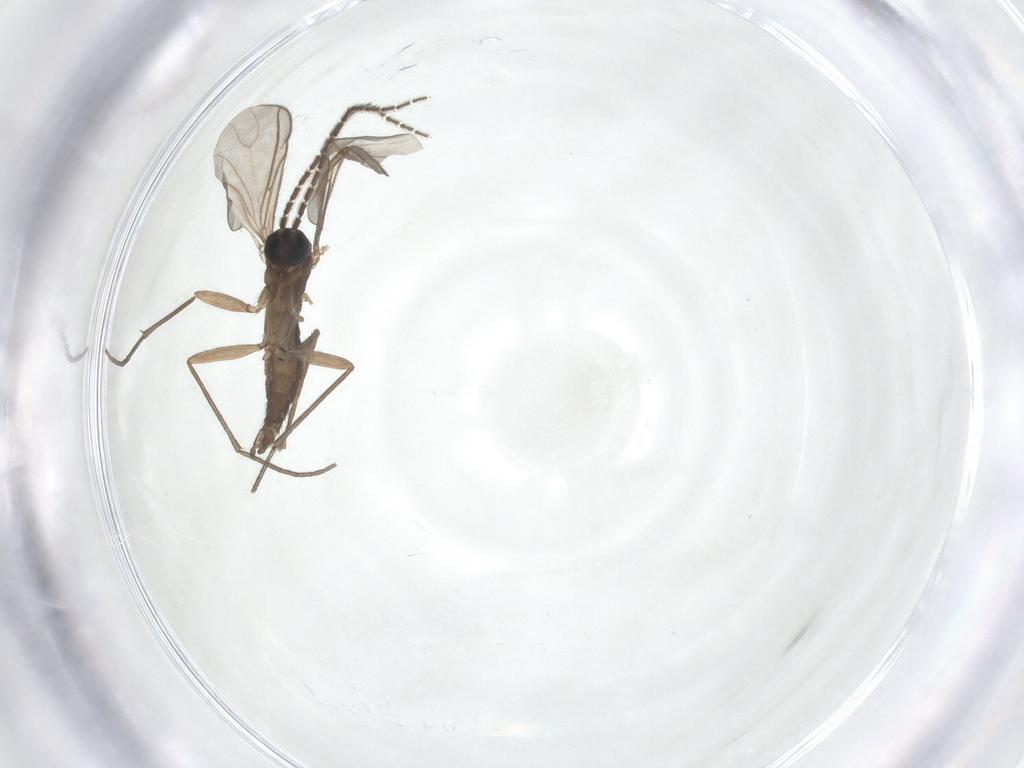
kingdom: Animalia
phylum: Arthropoda
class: Insecta
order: Diptera
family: Sciaridae
